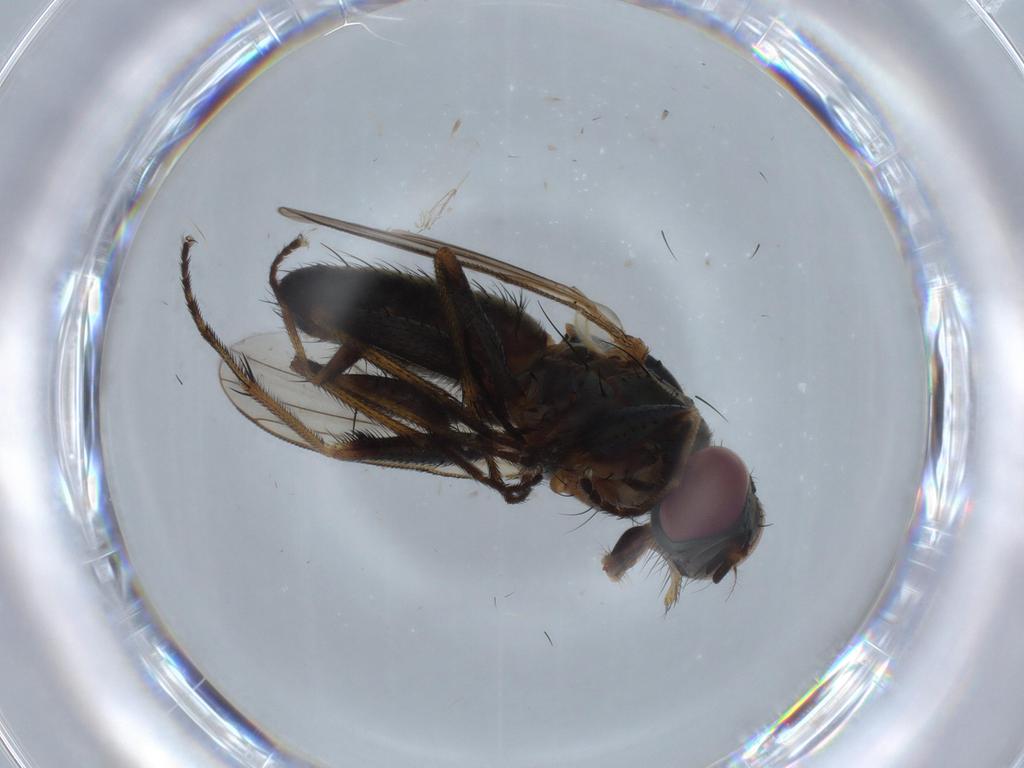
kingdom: Animalia
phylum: Arthropoda
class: Insecta
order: Diptera
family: Muscidae
